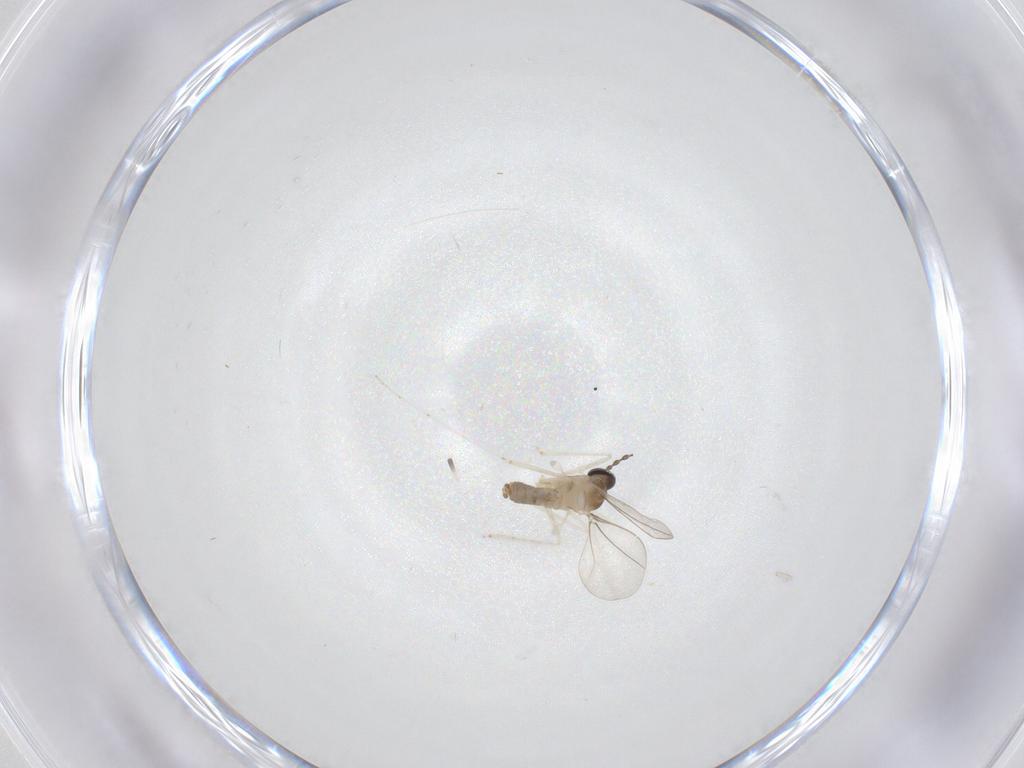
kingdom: Animalia
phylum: Arthropoda
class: Insecta
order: Diptera
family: Cecidomyiidae
